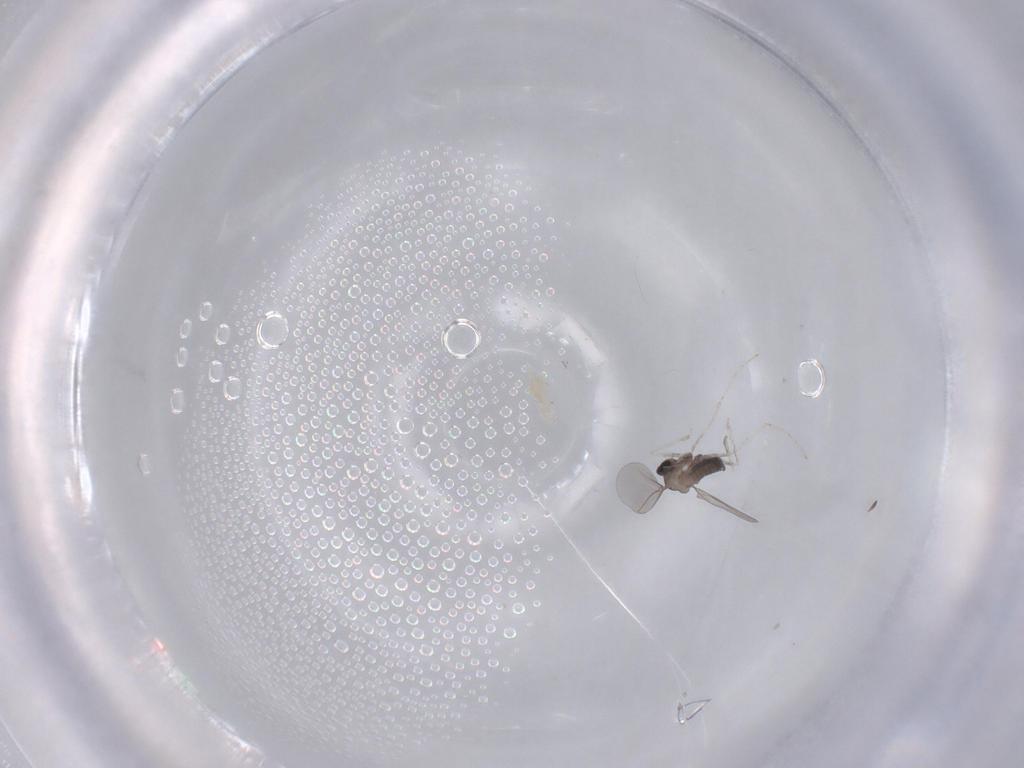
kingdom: Animalia
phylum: Arthropoda
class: Insecta
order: Diptera
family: Cecidomyiidae
